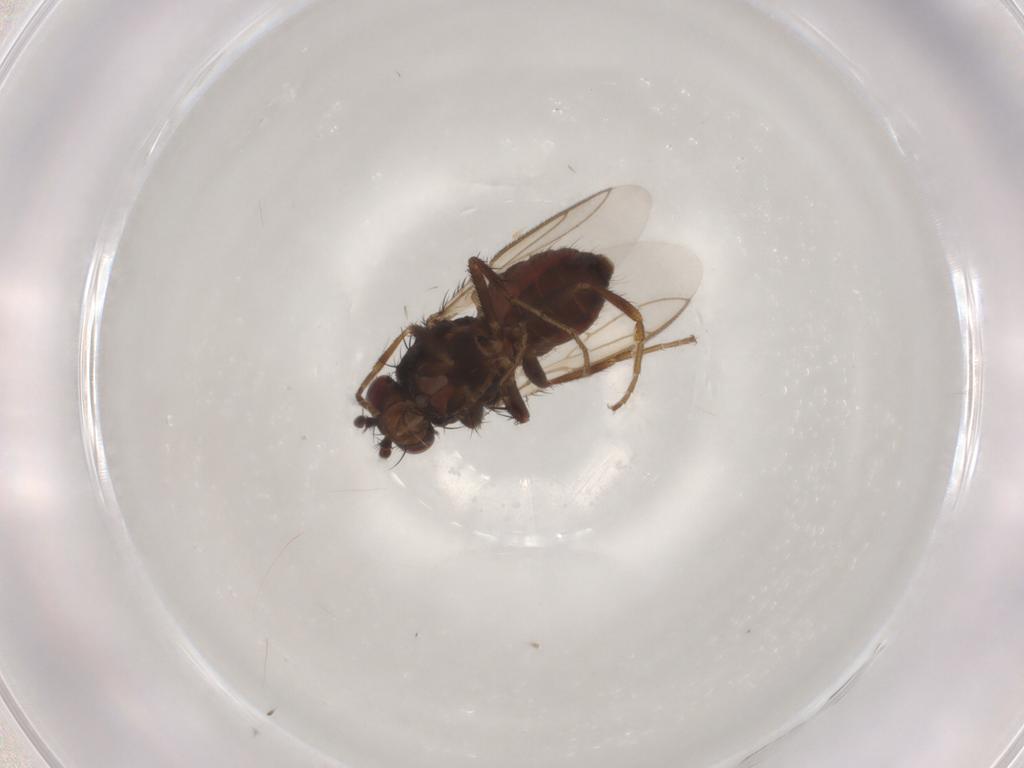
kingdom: Animalia
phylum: Arthropoda
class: Insecta
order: Diptera
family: Sphaeroceridae
